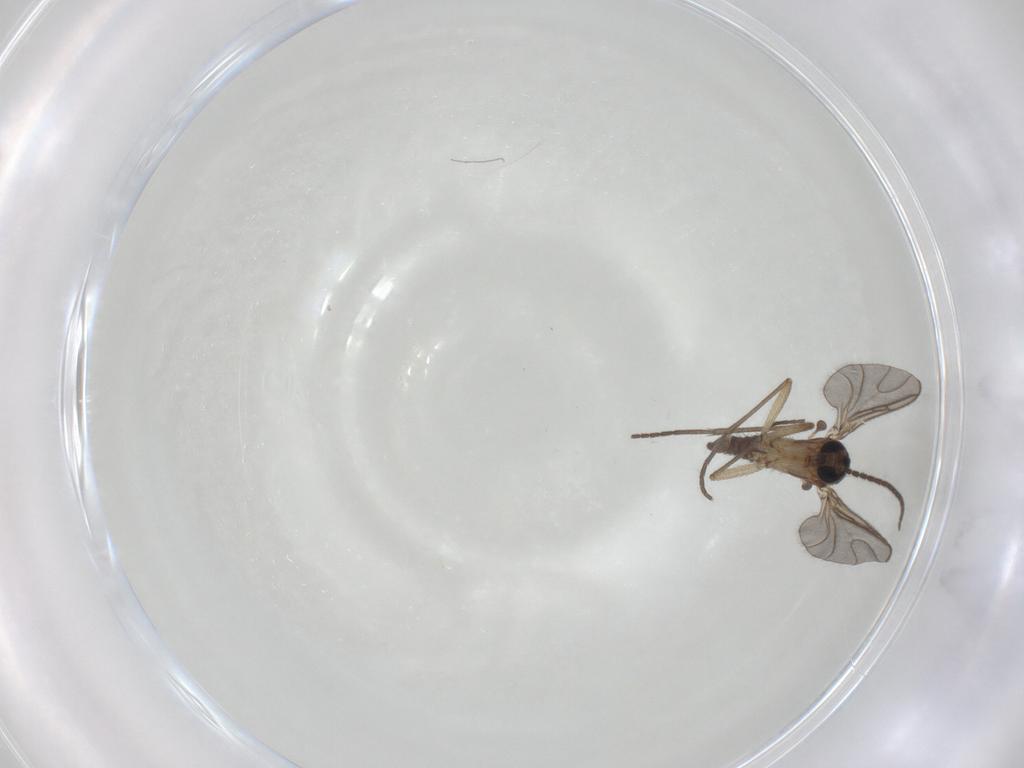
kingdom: Animalia
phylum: Arthropoda
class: Insecta
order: Diptera
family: Sciaridae
